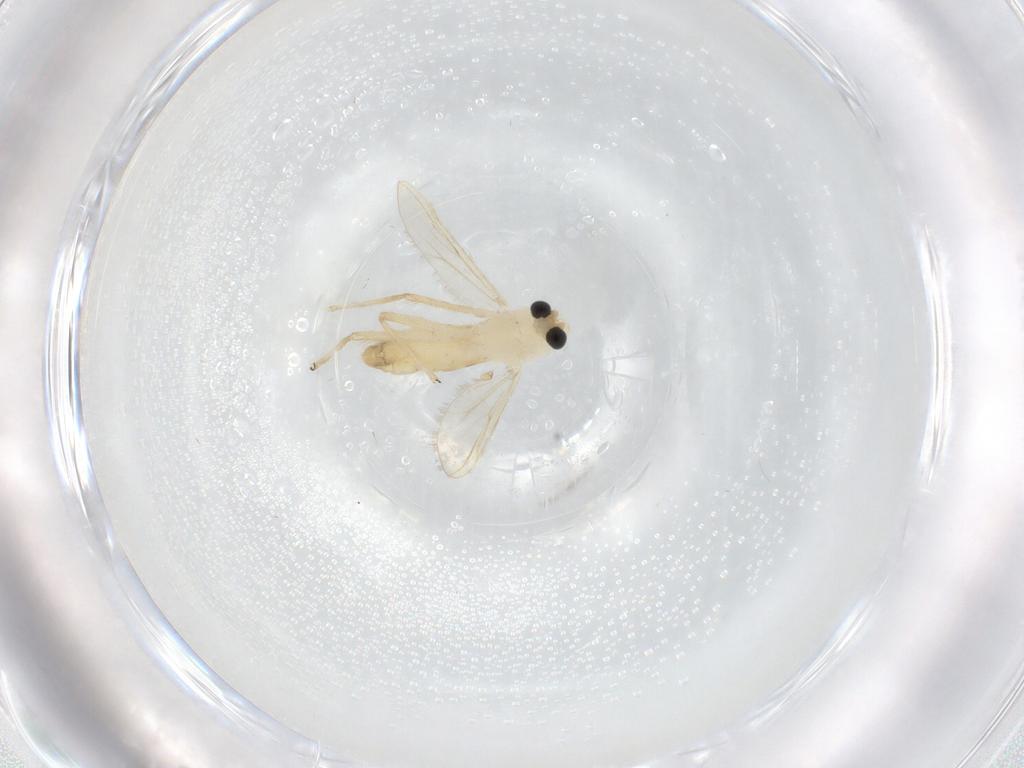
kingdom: Animalia
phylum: Arthropoda
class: Insecta
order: Diptera
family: Chironomidae
